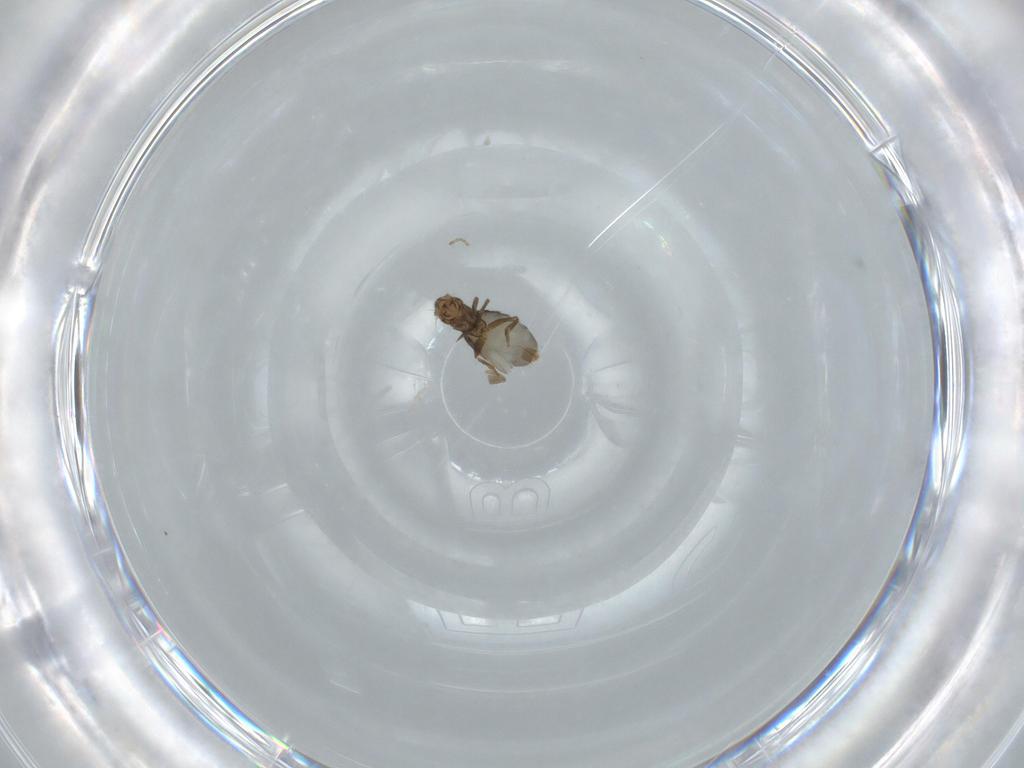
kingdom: Animalia
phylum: Arthropoda
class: Insecta
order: Diptera
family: Phoridae
